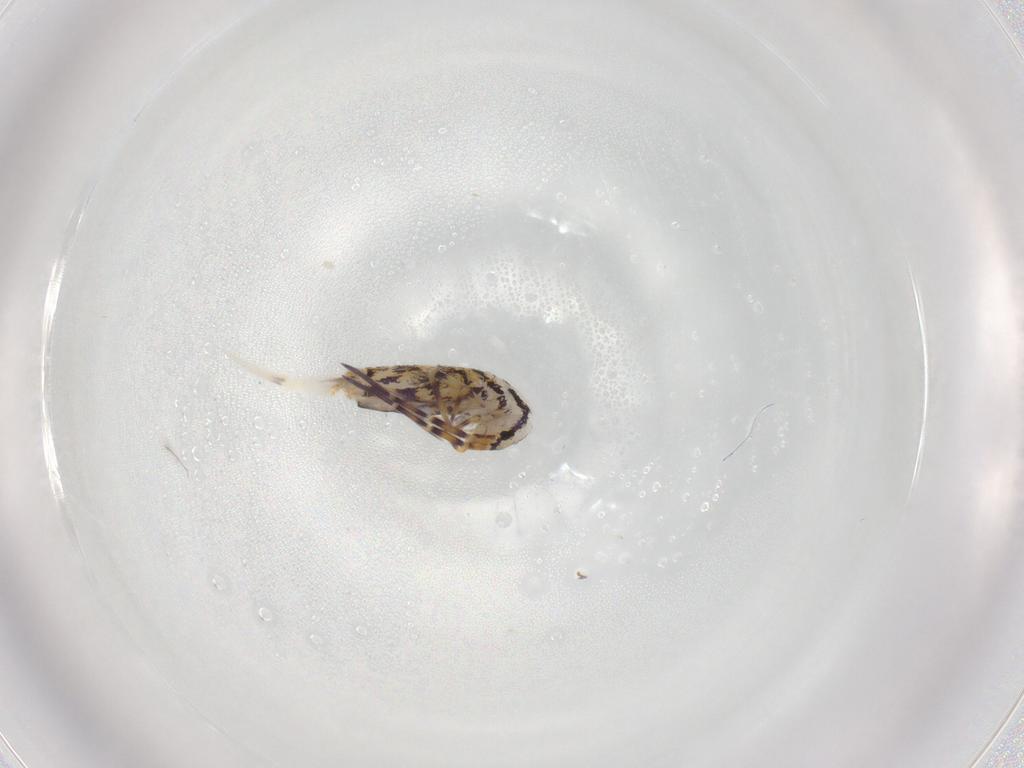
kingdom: Animalia
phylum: Arthropoda
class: Collembola
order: Entomobryomorpha
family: Entomobryidae
